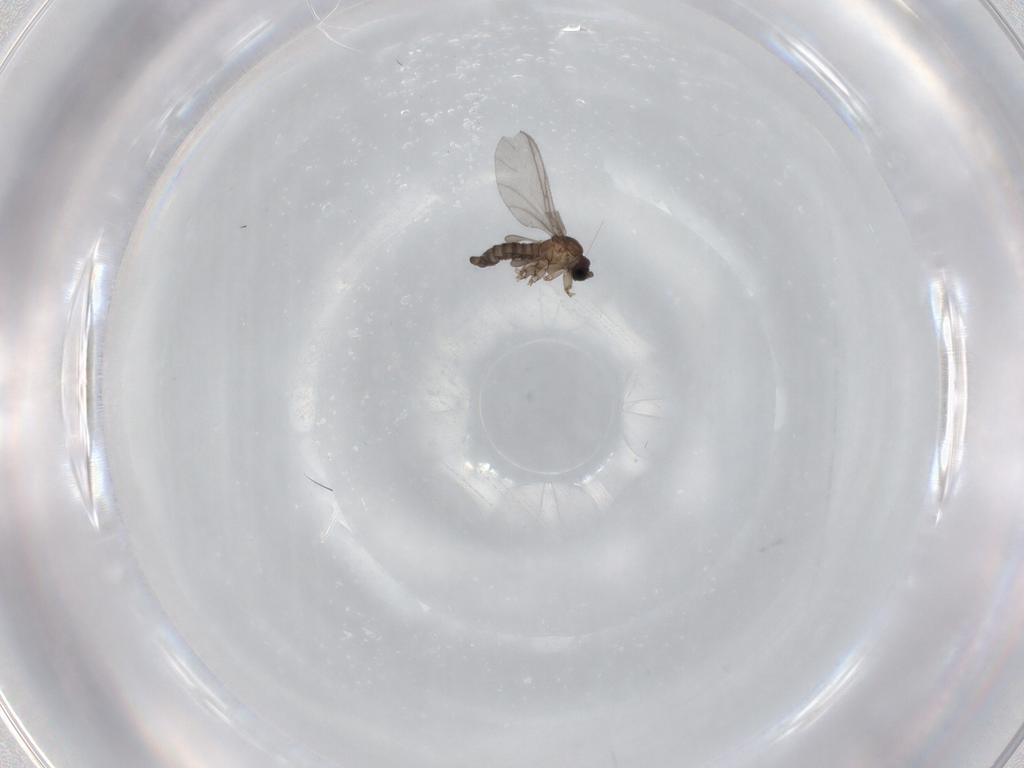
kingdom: Animalia
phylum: Arthropoda
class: Insecta
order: Diptera
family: Sciaridae
